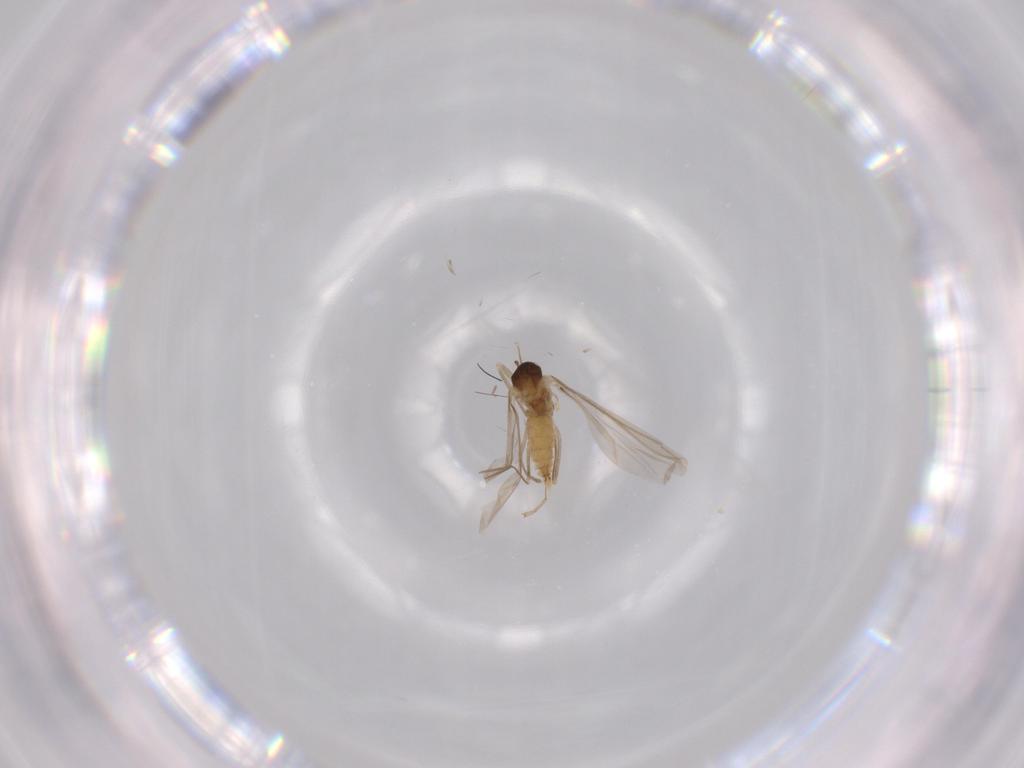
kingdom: Animalia
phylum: Arthropoda
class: Insecta
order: Diptera
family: Cecidomyiidae
